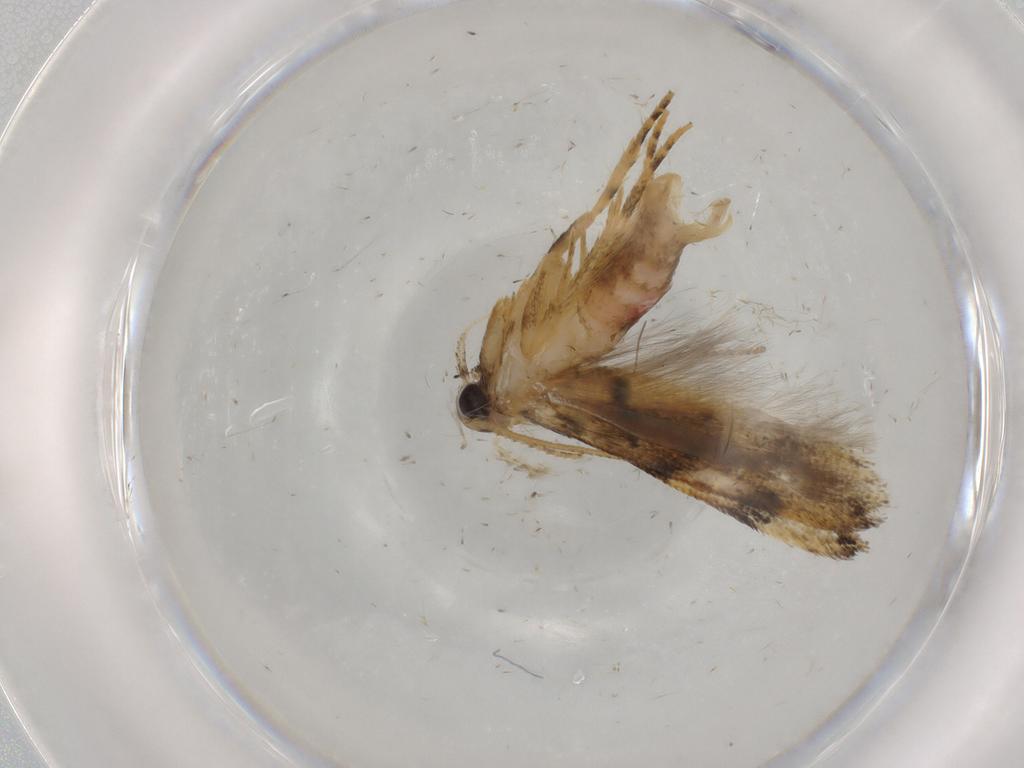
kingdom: Animalia
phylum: Arthropoda
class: Insecta
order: Lepidoptera
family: Gelechiidae
